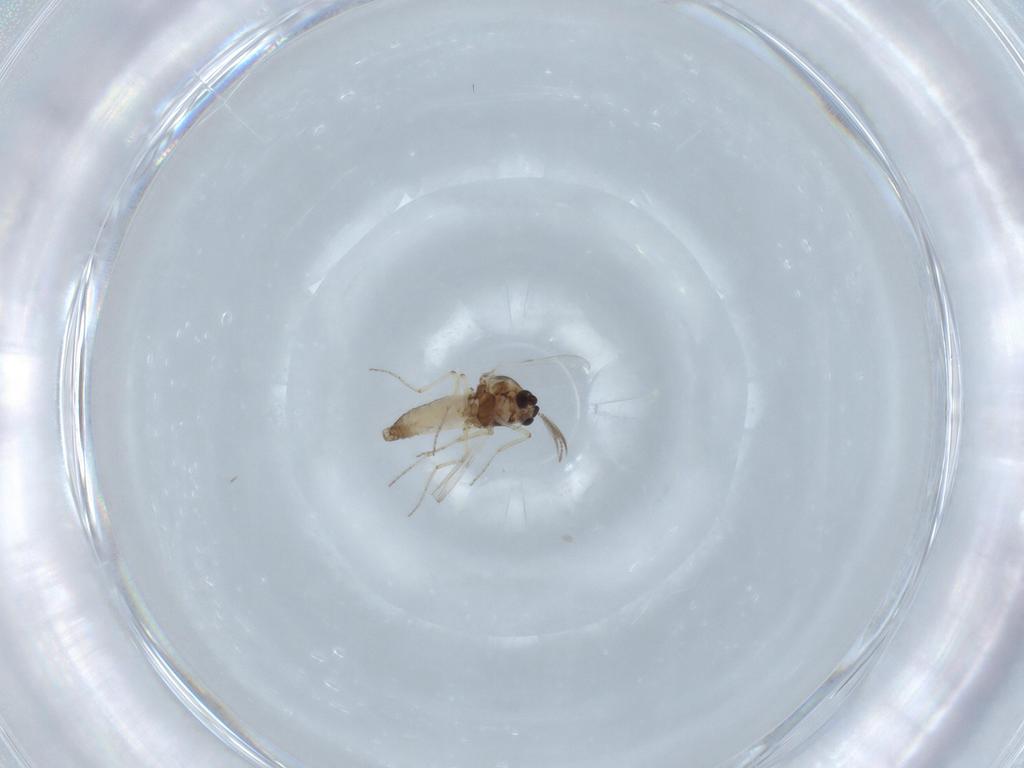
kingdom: Animalia
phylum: Arthropoda
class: Insecta
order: Diptera
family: Ceratopogonidae
